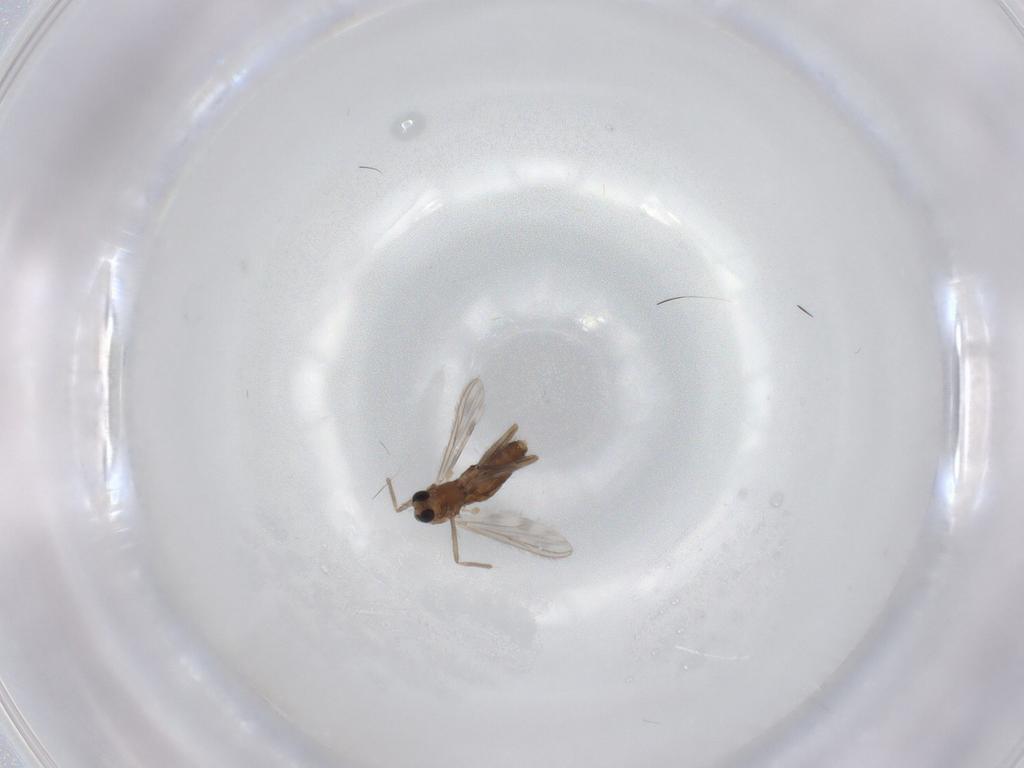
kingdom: Animalia
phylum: Arthropoda
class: Insecta
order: Diptera
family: Chironomidae
